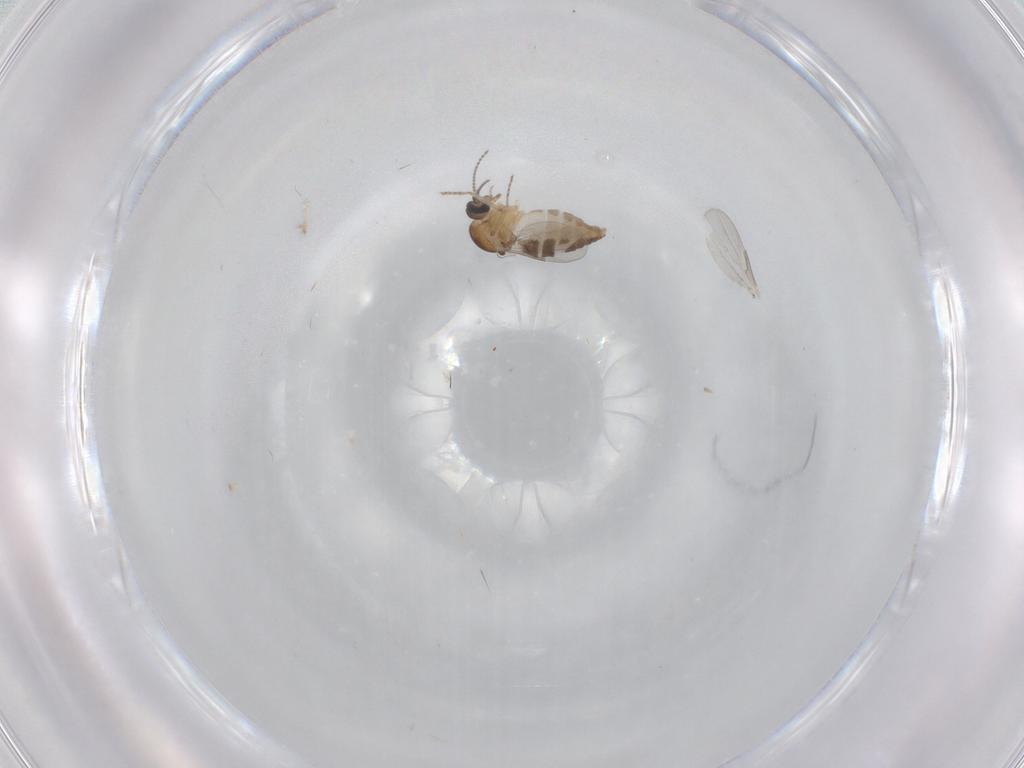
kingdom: Animalia
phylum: Arthropoda
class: Insecta
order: Diptera
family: Ceratopogonidae
